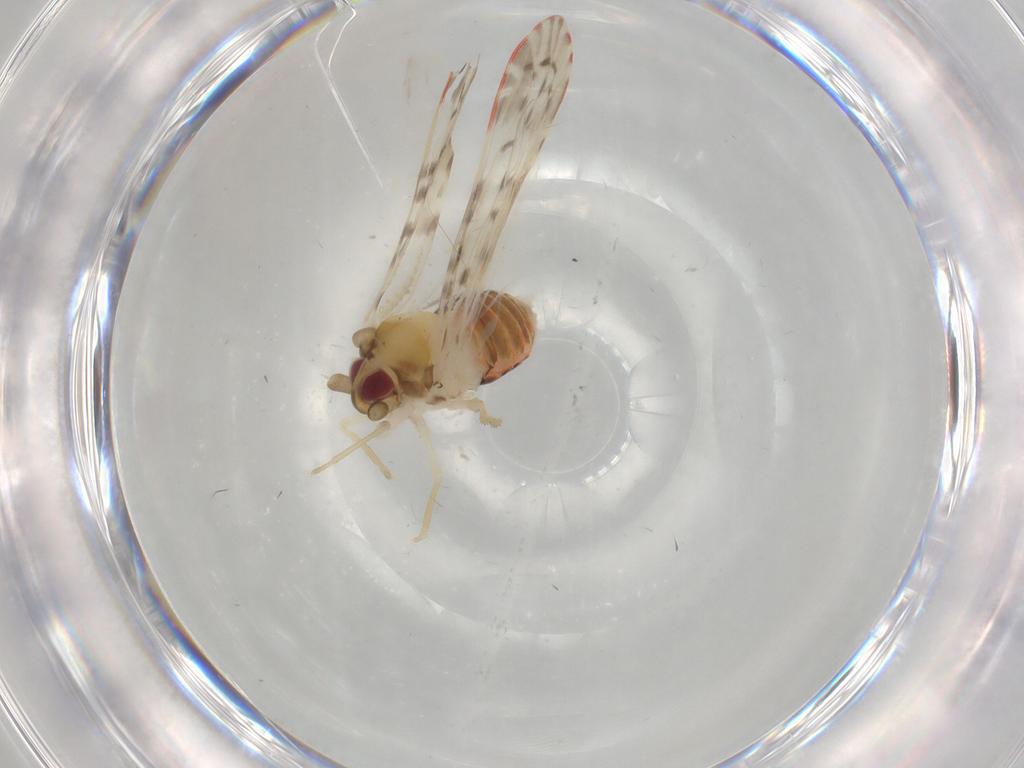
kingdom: Animalia
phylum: Arthropoda
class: Insecta
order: Hemiptera
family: Derbidae
